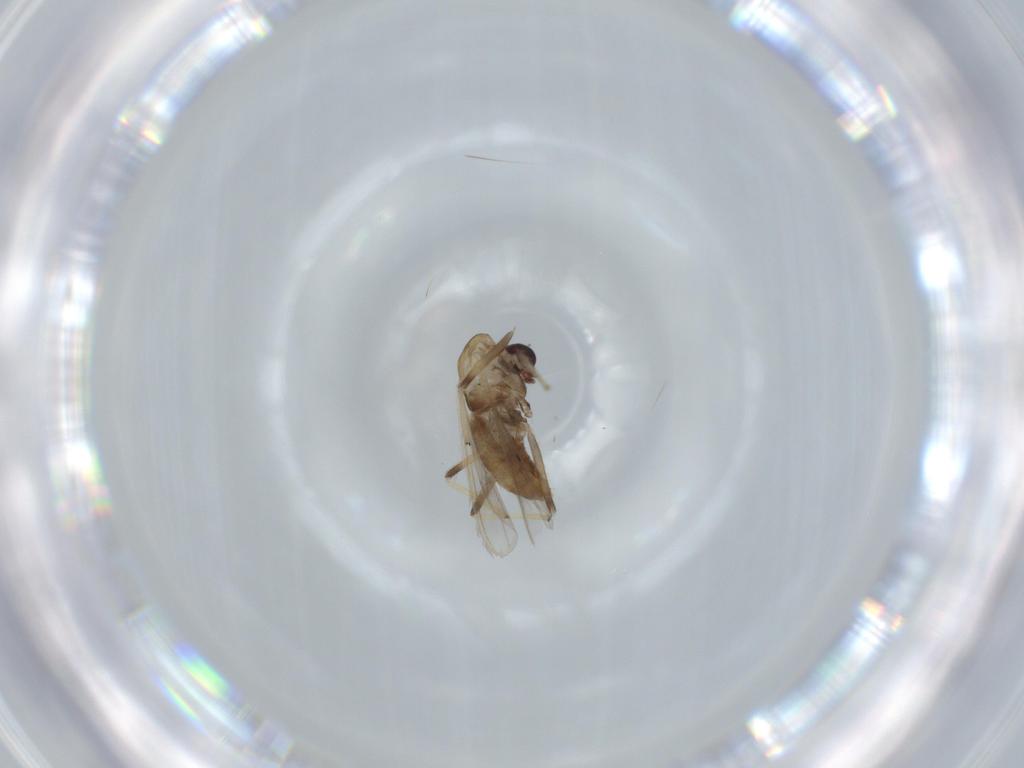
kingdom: Animalia
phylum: Arthropoda
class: Insecta
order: Diptera
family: Chironomidae
